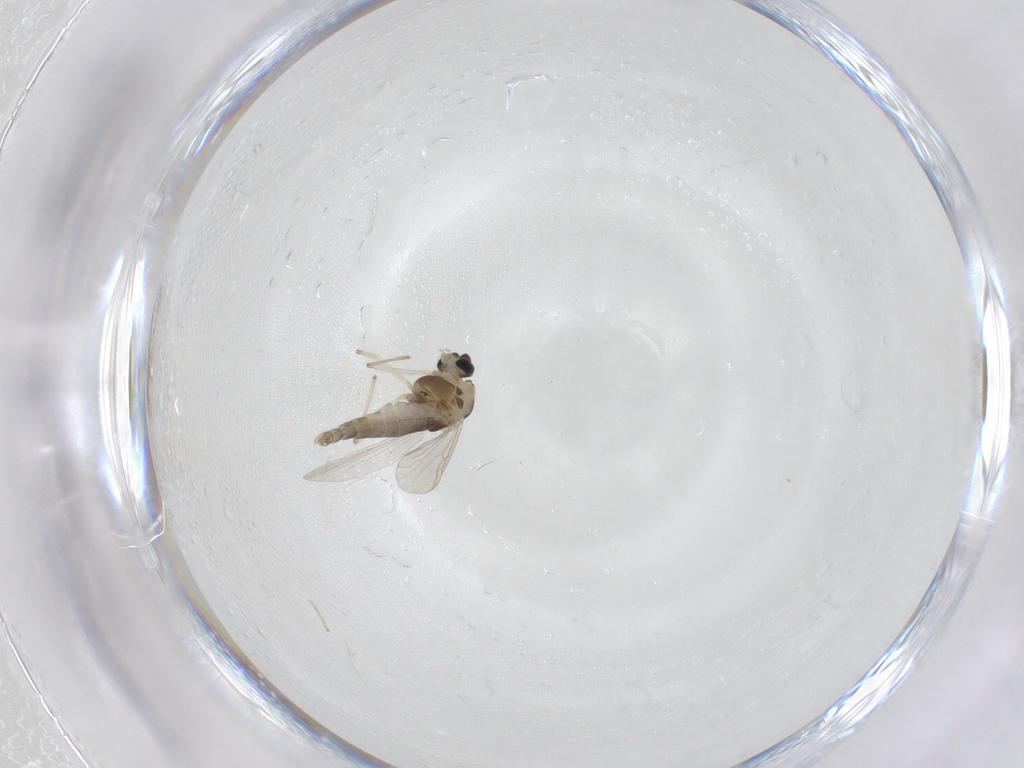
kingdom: Animalia
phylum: Arthropoda
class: Insecta
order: Diptera
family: Chironomidae
